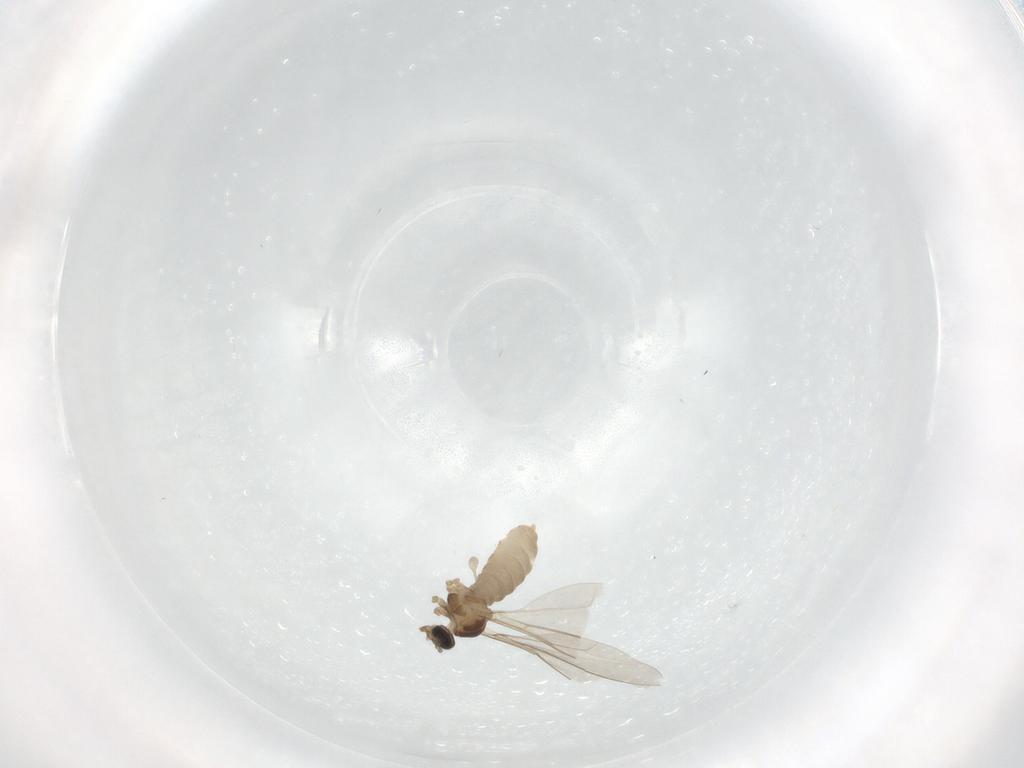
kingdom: Animalia
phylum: Arthropoda
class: Insecta
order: Diptera
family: Cecidomyiidae
